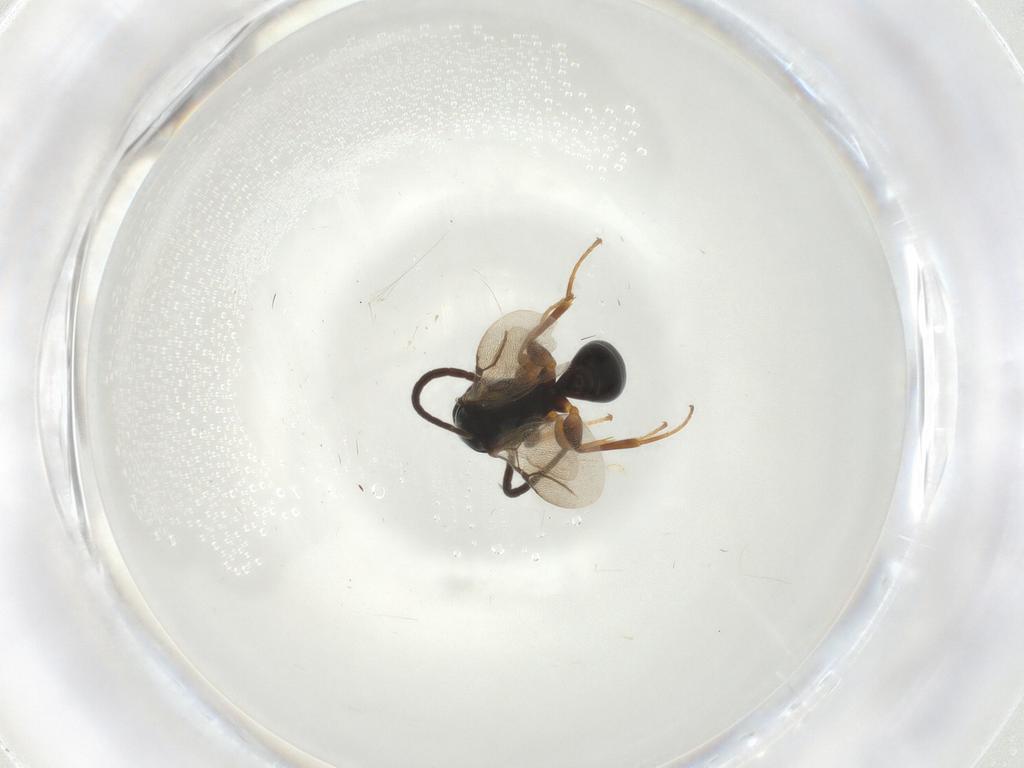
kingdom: Animalia
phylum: Arthropoda
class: Insecta
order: Hymenoptera
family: Bethylidae
